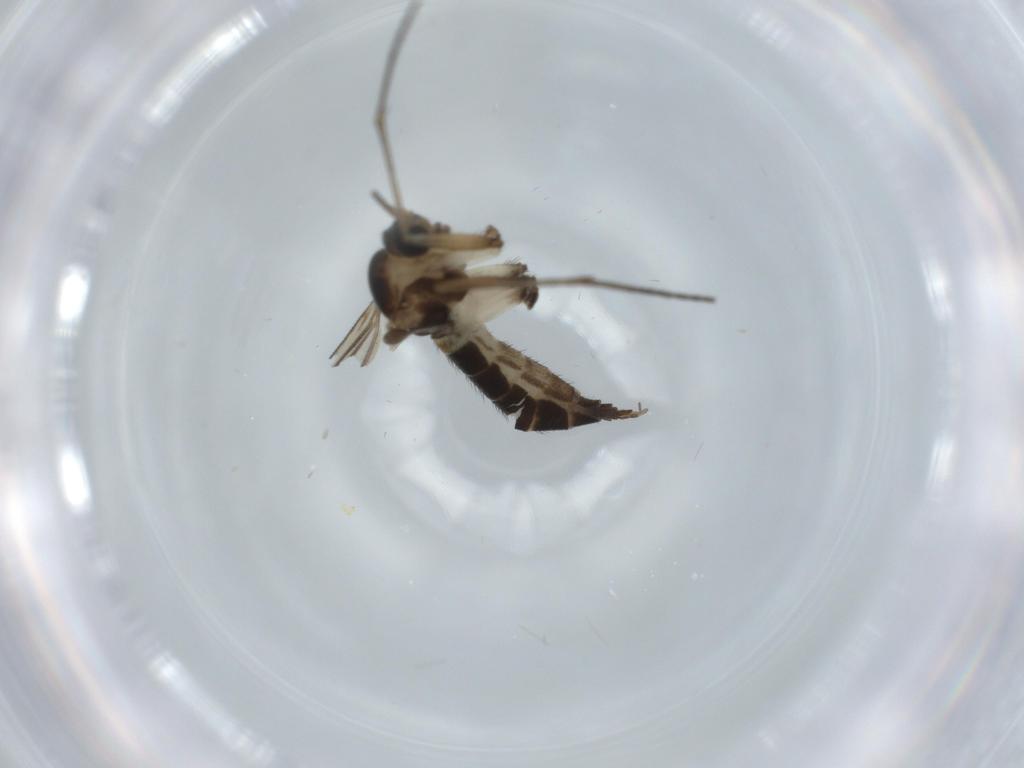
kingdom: Animalia
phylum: Arthropoda
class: Insecta
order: Diptera
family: Sciaridae
